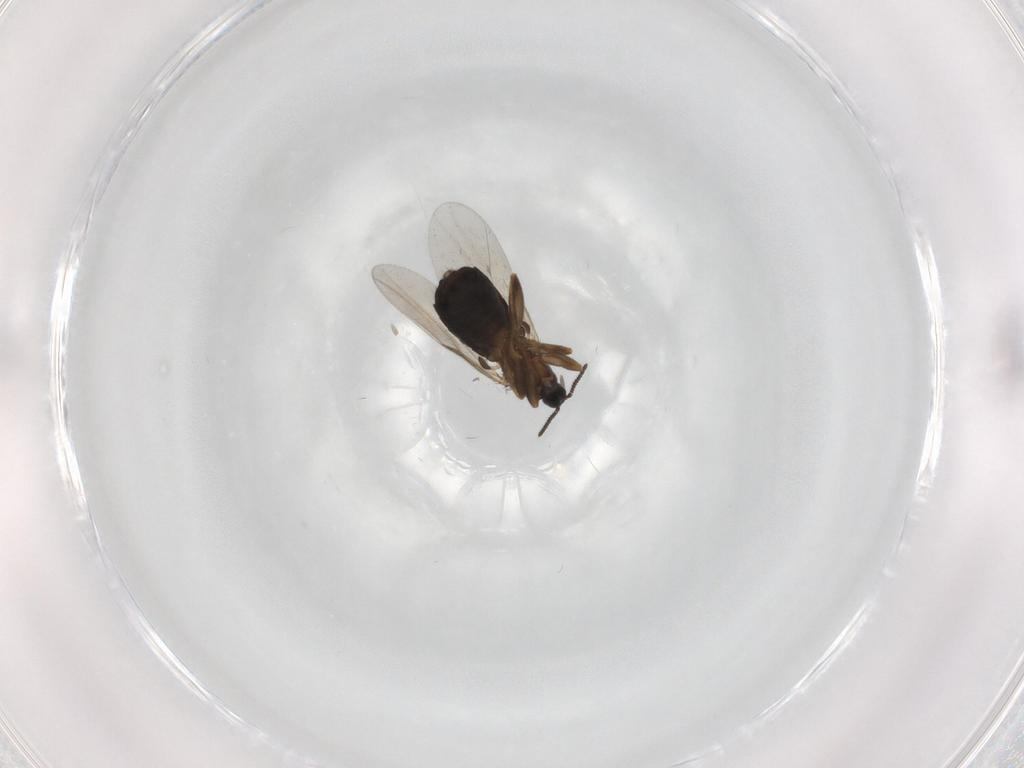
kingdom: Animalia
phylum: Arthropoda
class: Insecta
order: Diptera
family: Scatopsidae
